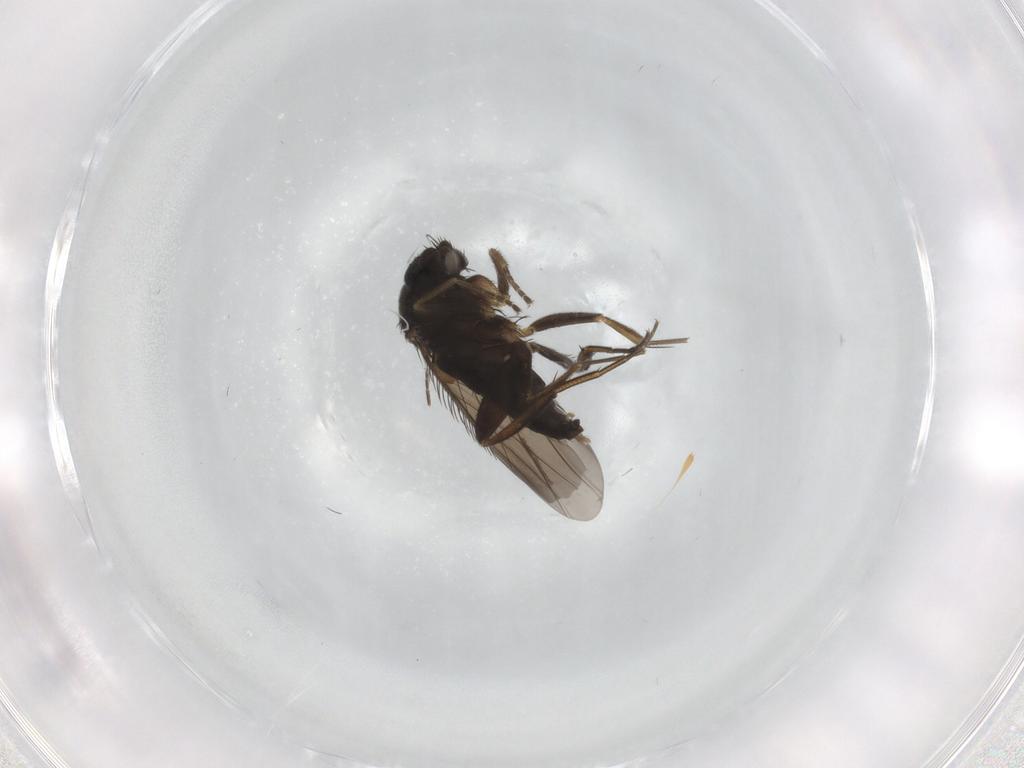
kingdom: Animalia
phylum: Arthropoda
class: Insecta
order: Diptera
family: Phoridae
